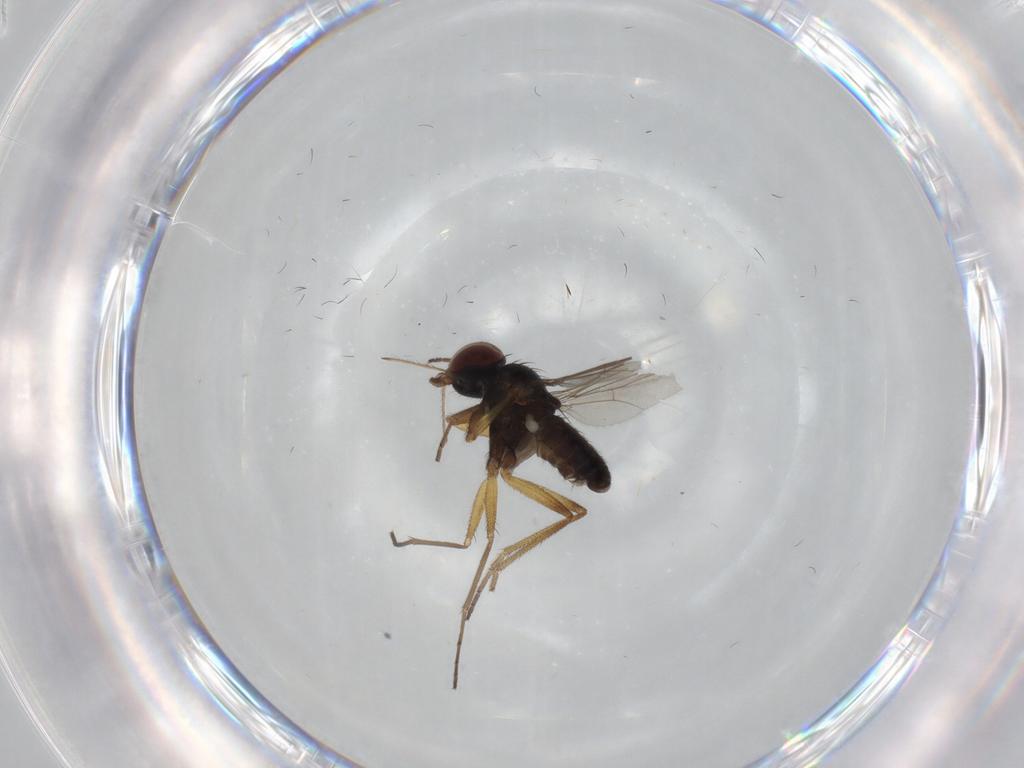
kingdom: Animalia
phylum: Arthropoda
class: Insecta
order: Diptera
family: Dolichopodidae
